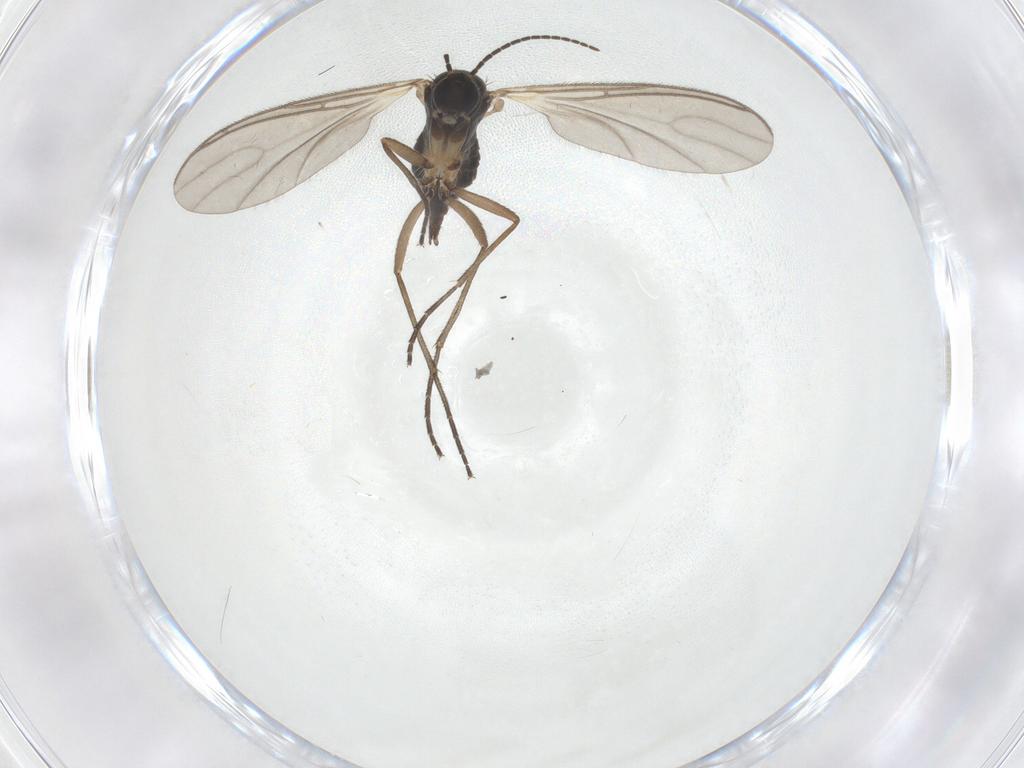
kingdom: Animalia
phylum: Arthropoda
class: Insecta
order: Diptera
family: Sciaridae
